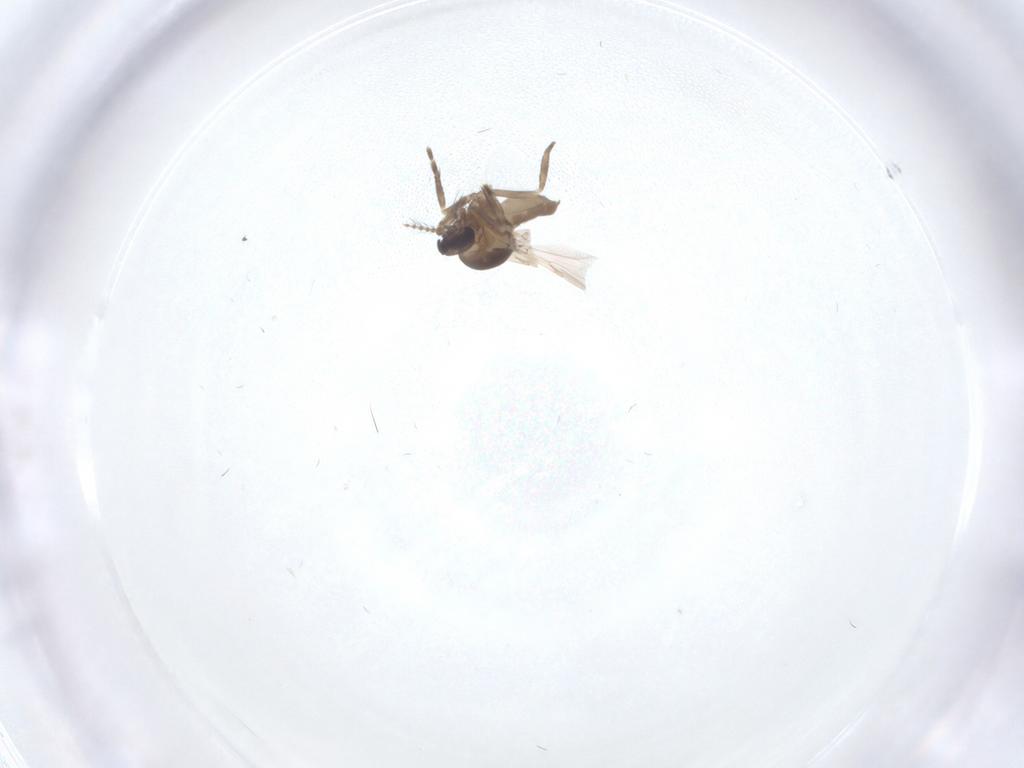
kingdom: Animalia
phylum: Arthropoda
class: Insecta
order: Diptera
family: Ceratopogonidae
